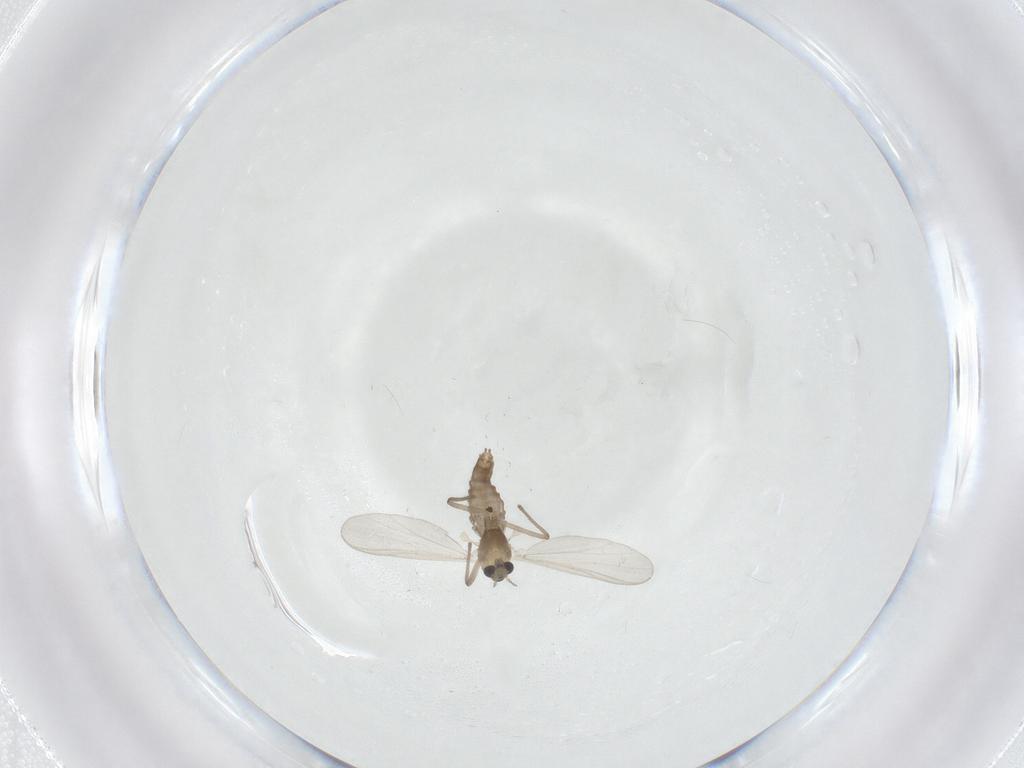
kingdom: Animalia
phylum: Arthropoda
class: Insecta
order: Diptera
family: Chironomidae
